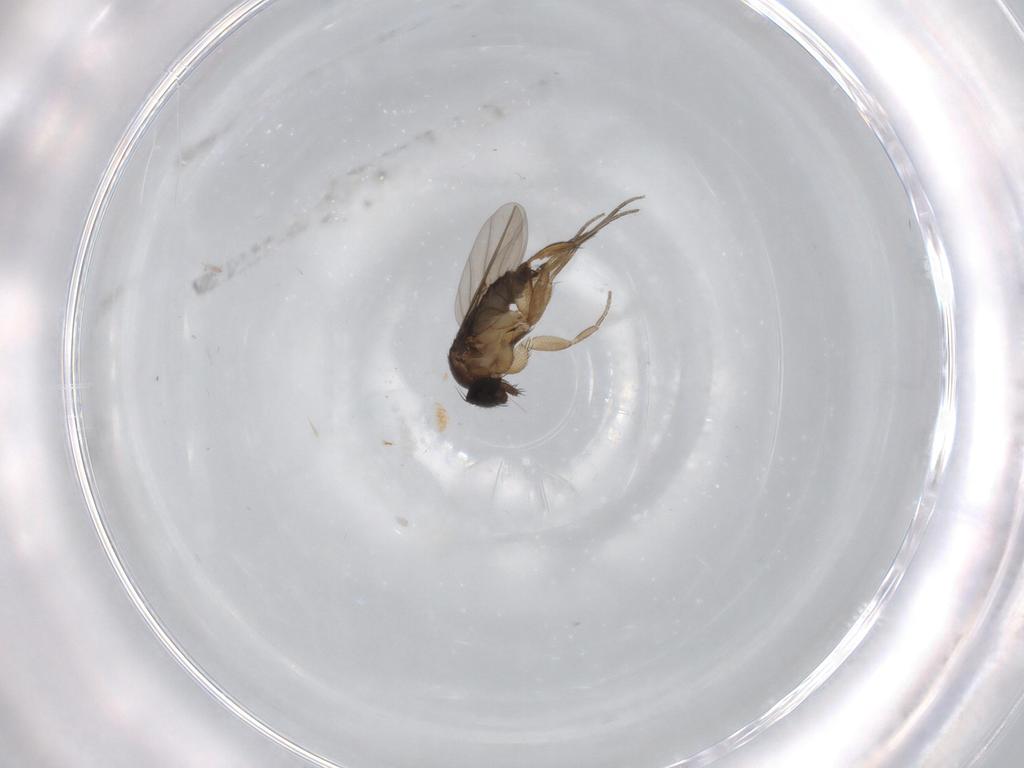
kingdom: Animalia
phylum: Arthropoda
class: Insecta
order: Diptera
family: Phoridae
